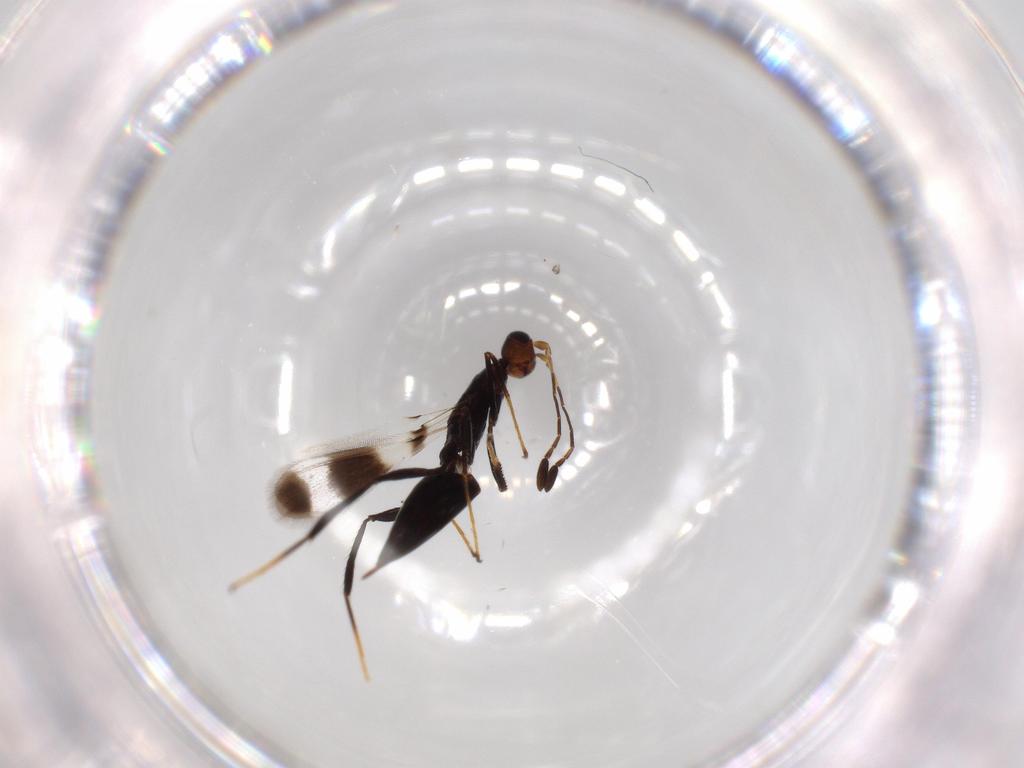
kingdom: Animalia
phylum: Arthropoda
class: Insecta
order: Hymenoptera
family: Mymaridae
